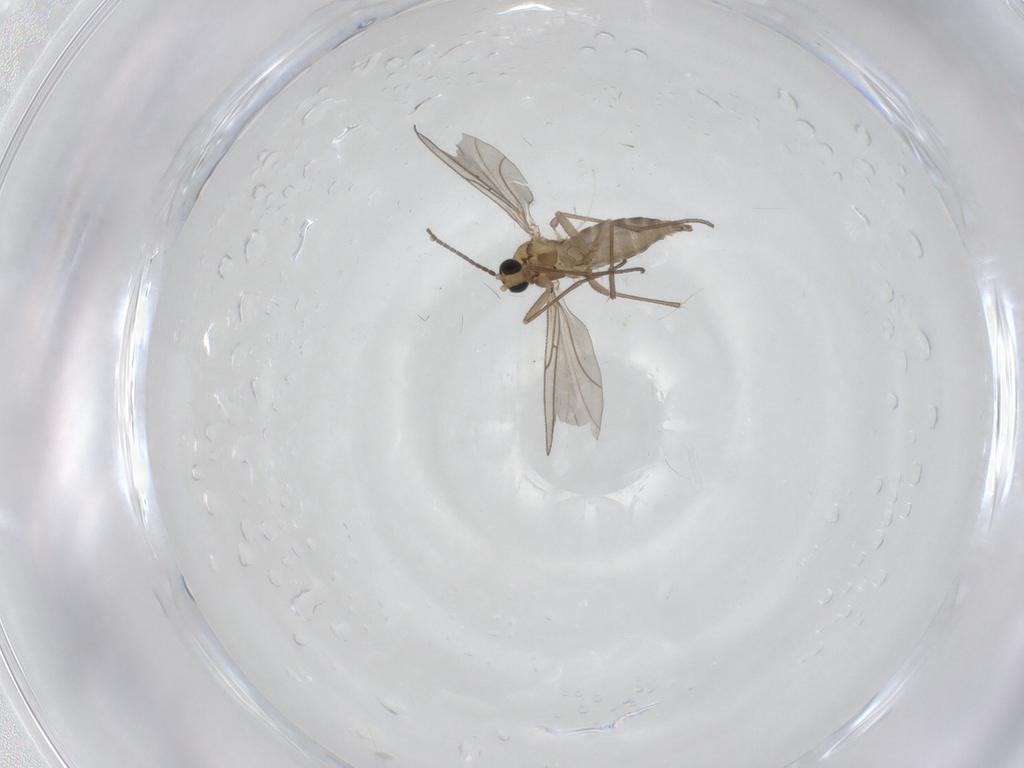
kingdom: Animalia
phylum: Arthropoda
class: Insecta
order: Diptera
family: Sciaridae
